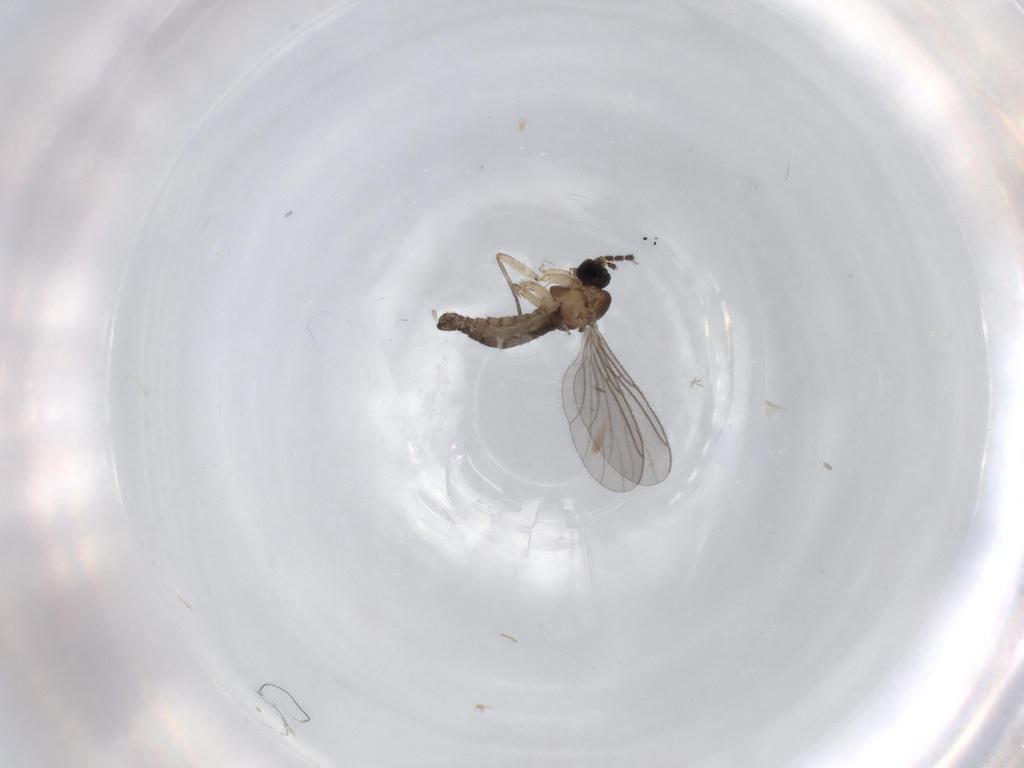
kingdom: Animalia
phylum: Arthropoda
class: Insecta
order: Diptera
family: Sciaridae
